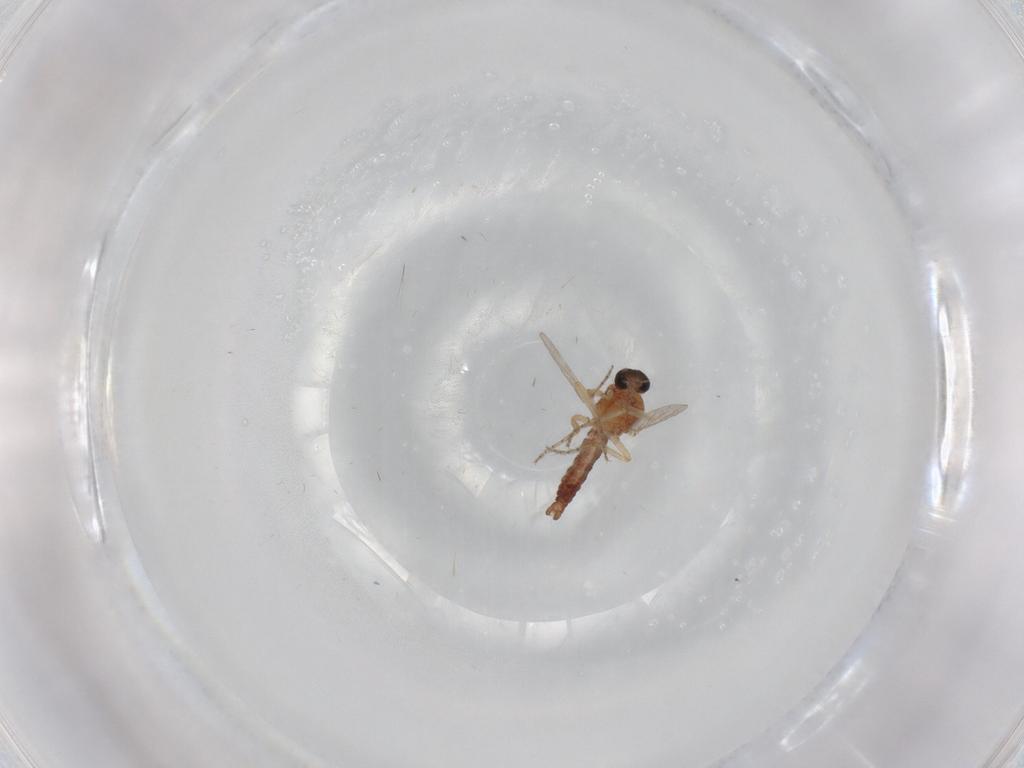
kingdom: Animalia
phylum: Arthropoda
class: Insecta
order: Diptera
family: Ceratopogonidae
